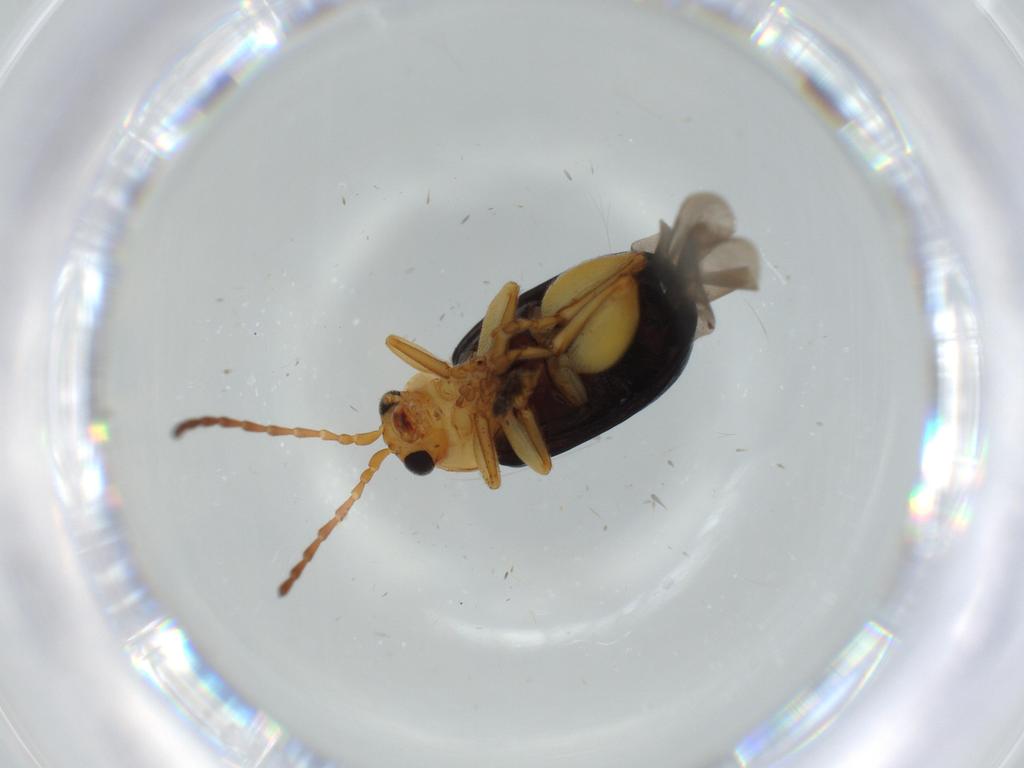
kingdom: Animalia
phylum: Arthropoda
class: Insecta
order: Coleoptera
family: Chrysomelidae
